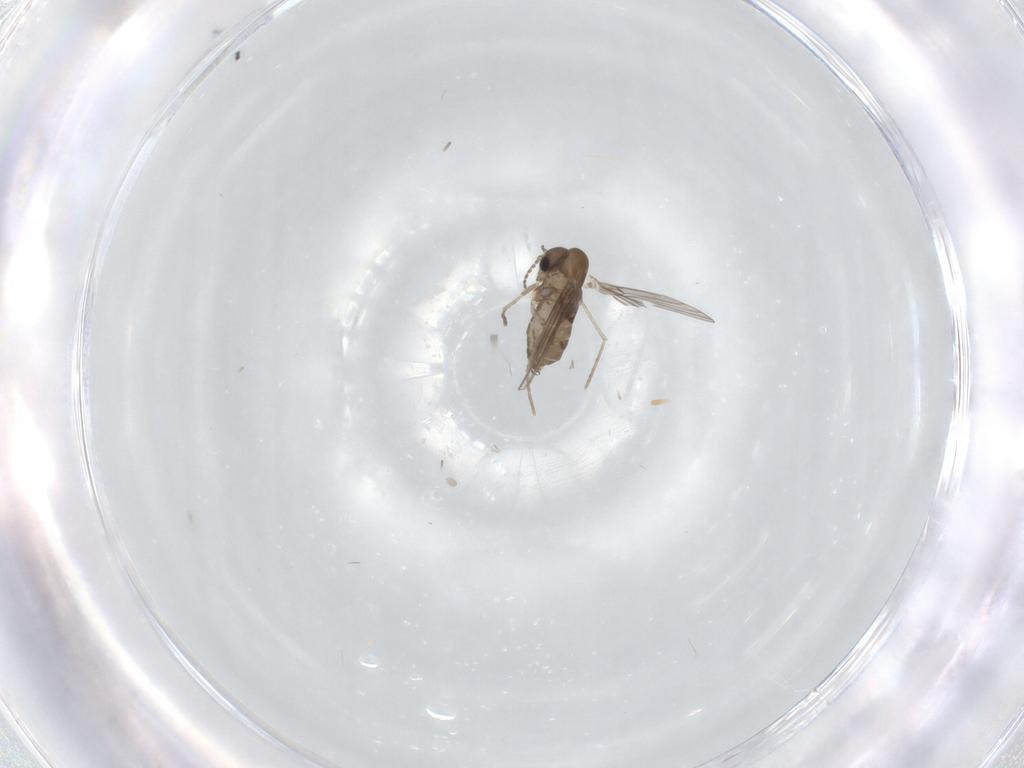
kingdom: Animalia
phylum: Arthropoda
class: Insecta
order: Diptera
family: Limoniidae
